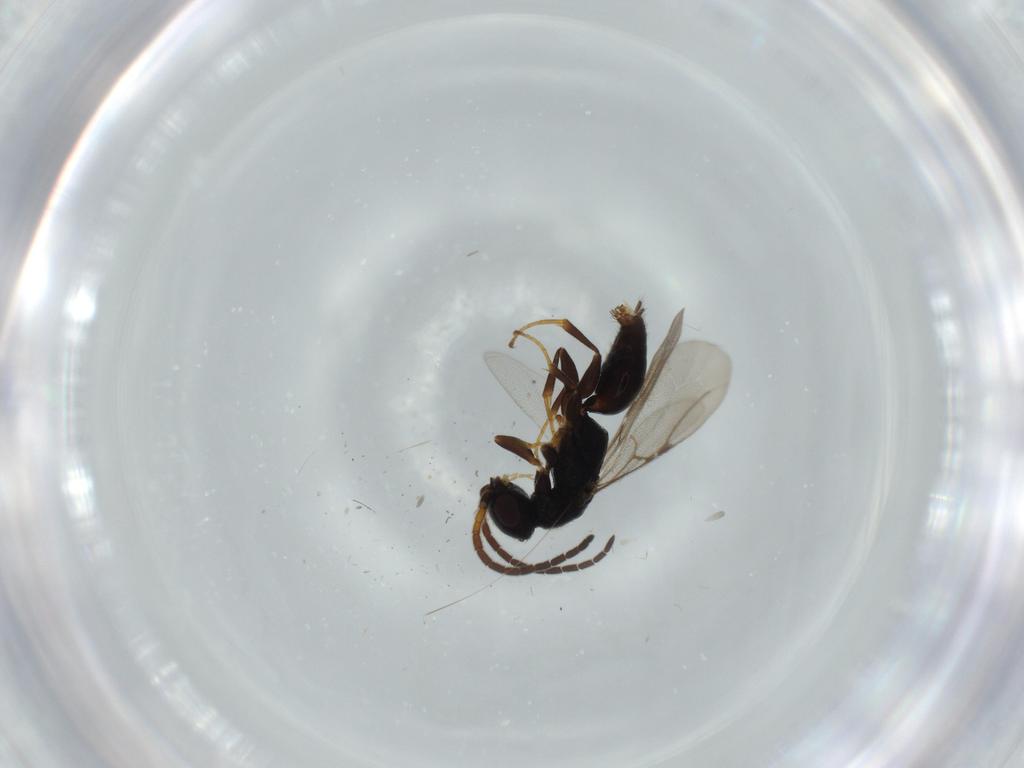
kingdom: Animalia
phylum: Arthropoda
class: Insecta
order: Hymenoptera
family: Bethylidae
